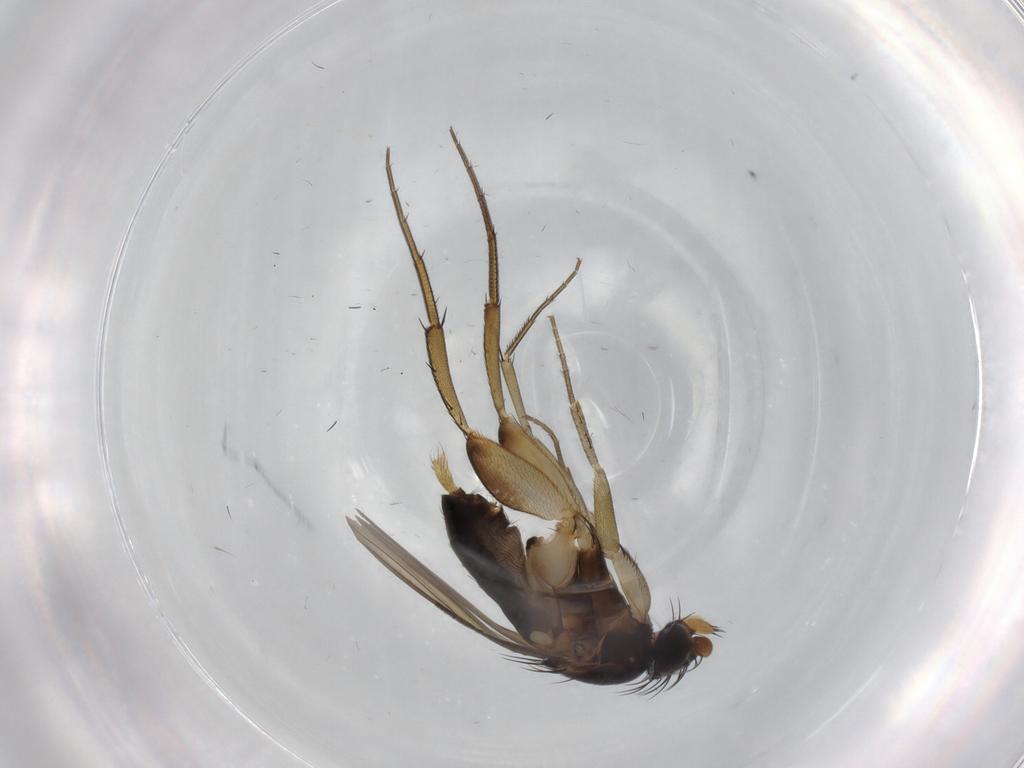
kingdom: Animalia
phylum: Arthropoda
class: Insecta
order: Diptera
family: Phoridae
